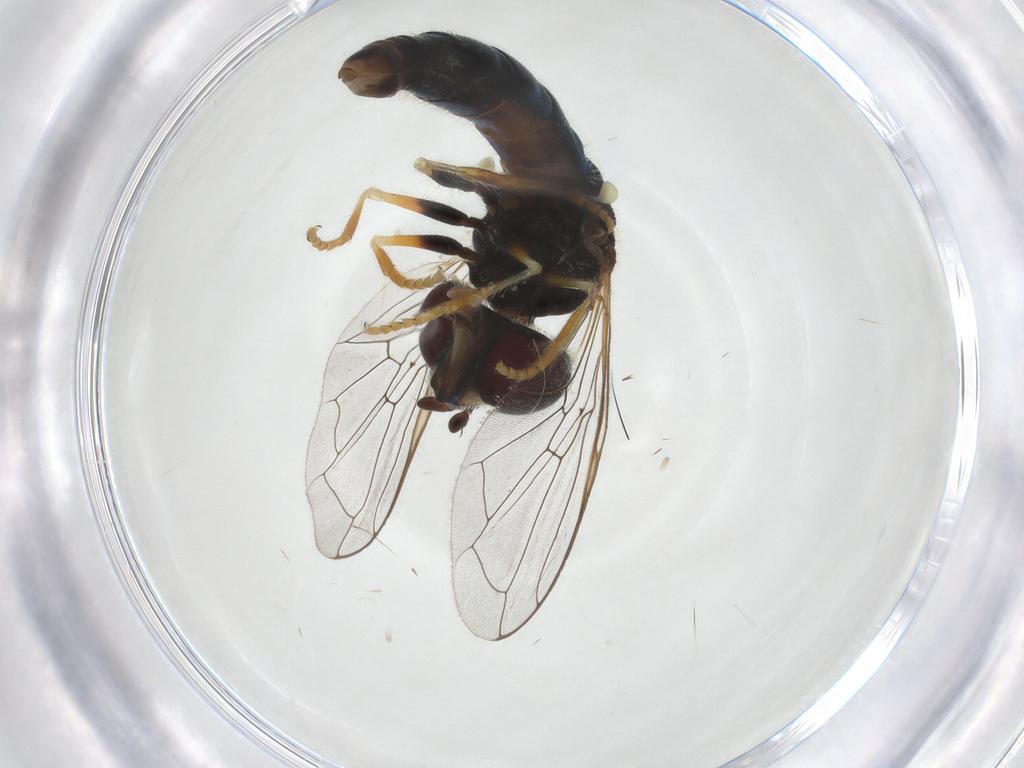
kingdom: Animalia
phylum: Arthropoda
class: Insecta
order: Diptera
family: Syrphidae
